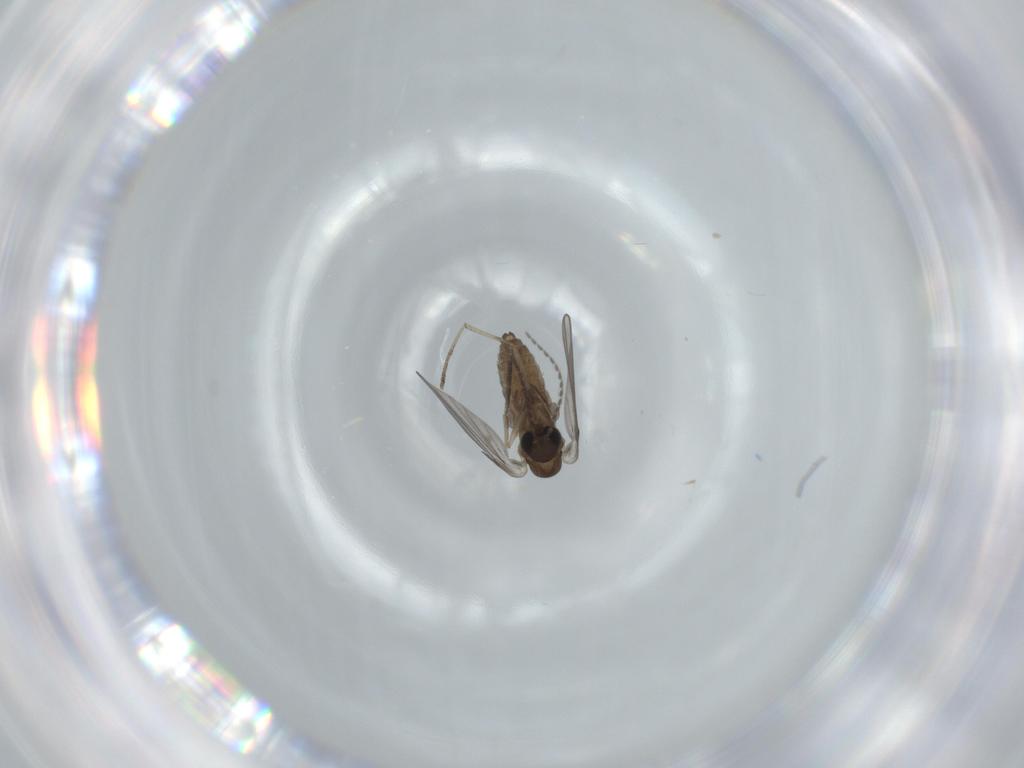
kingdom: Animalia
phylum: Arthropoda
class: Insecta
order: Diptera
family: Psychodidae
